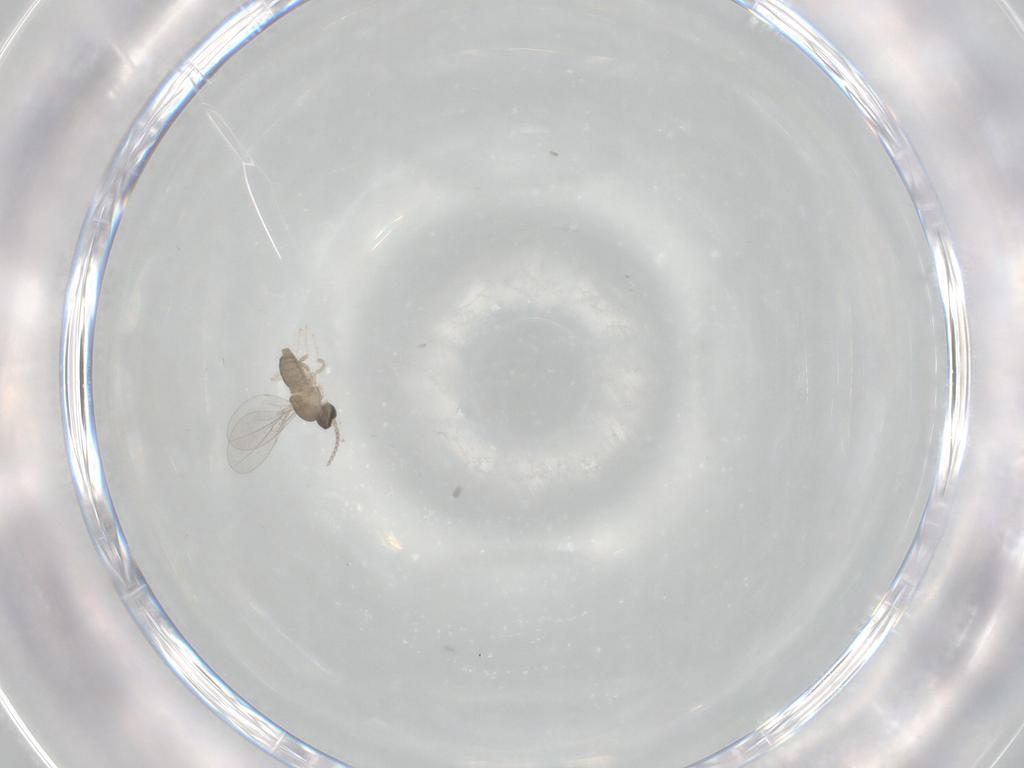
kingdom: Animalia
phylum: Arthropoda
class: Insecta
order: Diptera
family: Cecidomyiidae
